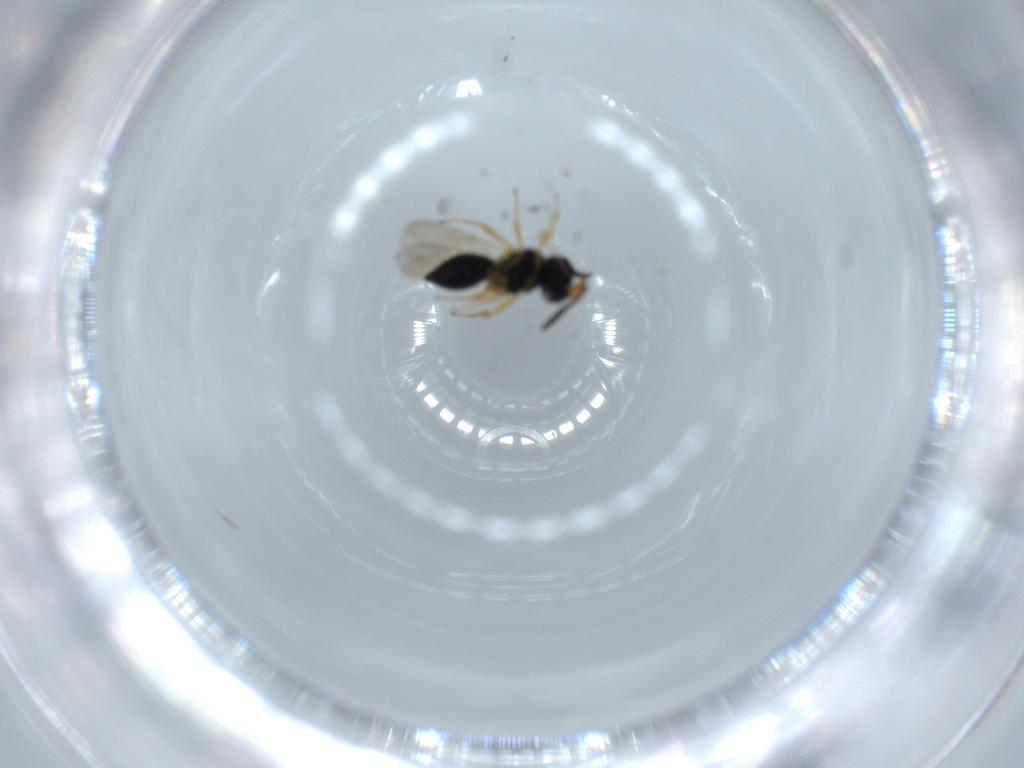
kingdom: Animalia
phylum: Arthropoda
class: Insecta
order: Hymenoptera
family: Scelionidae
